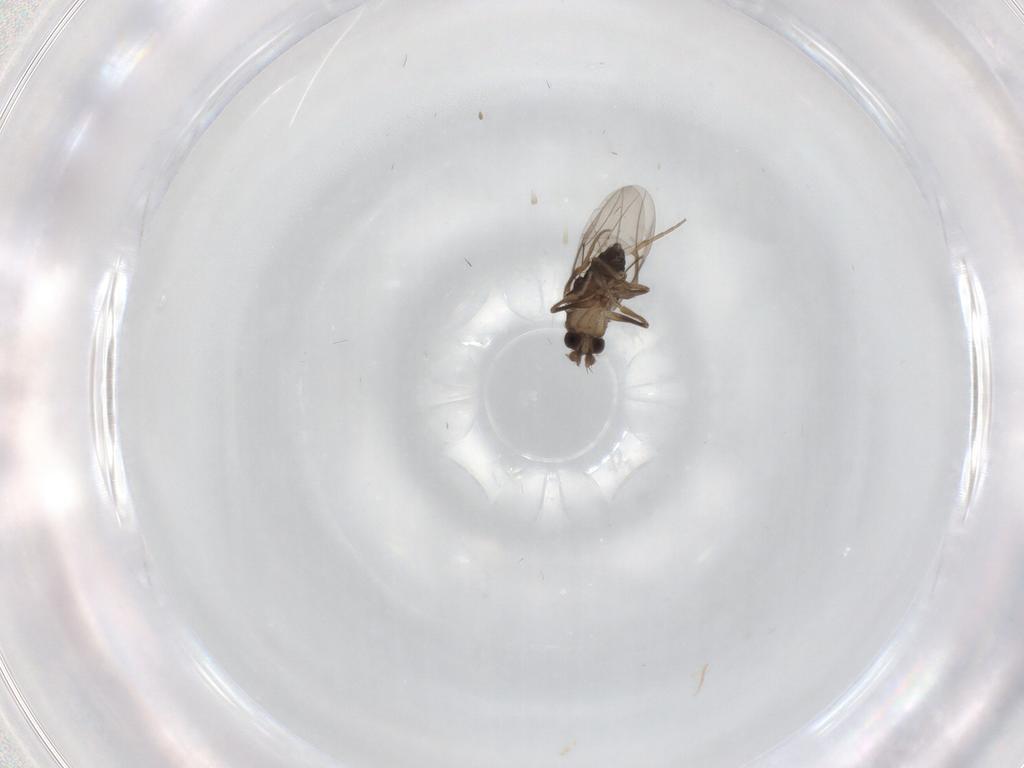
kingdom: Animalia
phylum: Arthropoda
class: Insecta
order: Diptera
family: Phoridae
